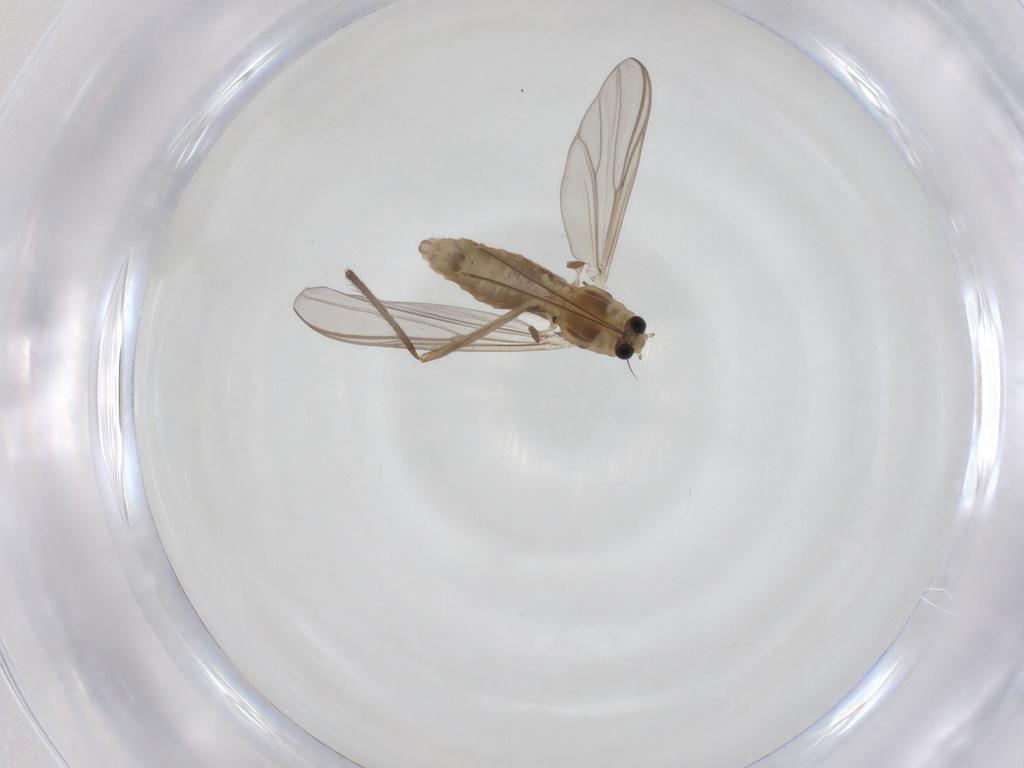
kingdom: Animalia
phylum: Arthropoda
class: Insecta
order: Diptera
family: Chironomidae
